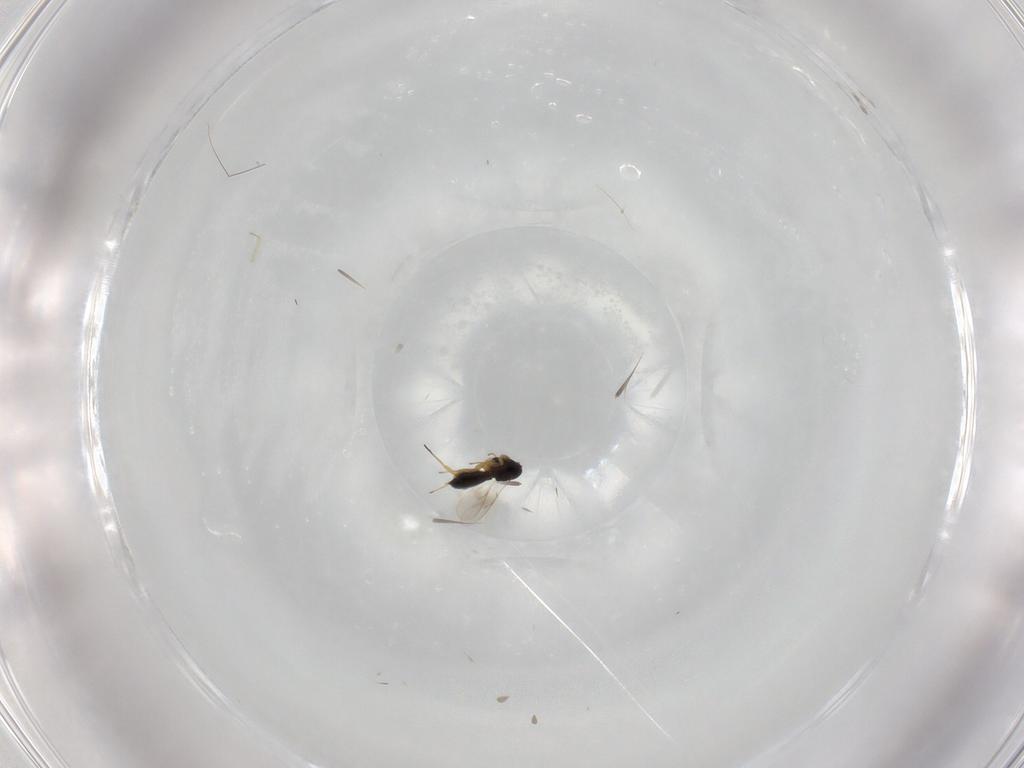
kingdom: Animalia
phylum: Arthropoda
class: Insecta
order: Hymenoptera
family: Scelionidae
